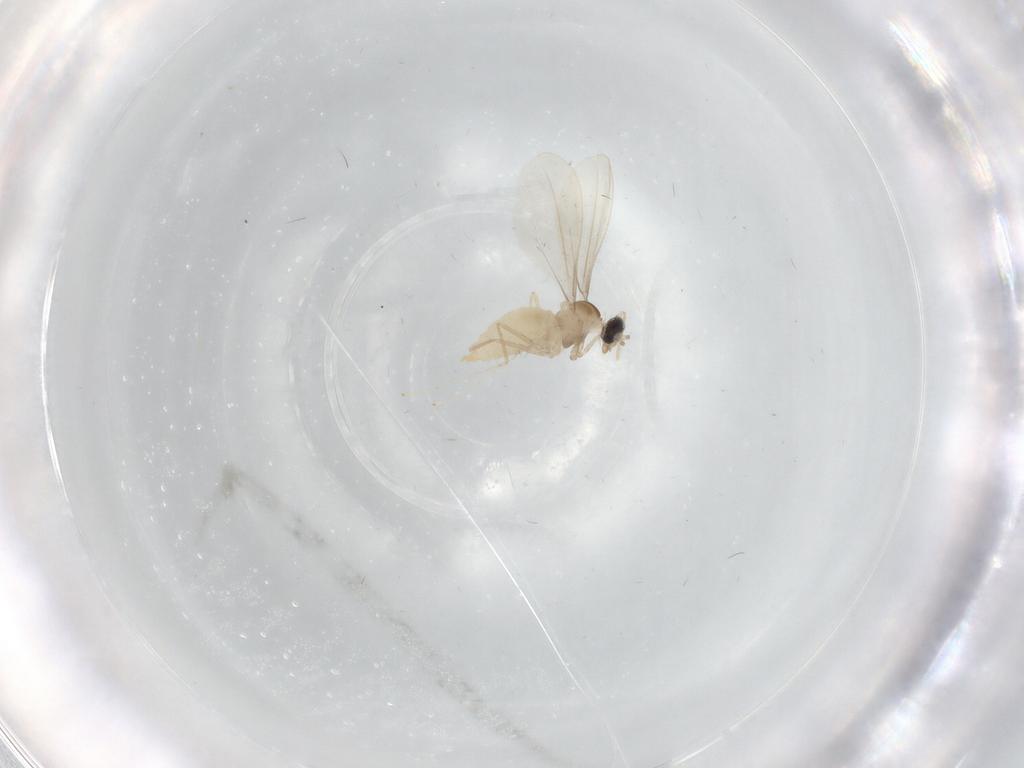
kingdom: Animalia
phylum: Arthropoda
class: Insecta
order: Diptera
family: Cecidomyiidae
